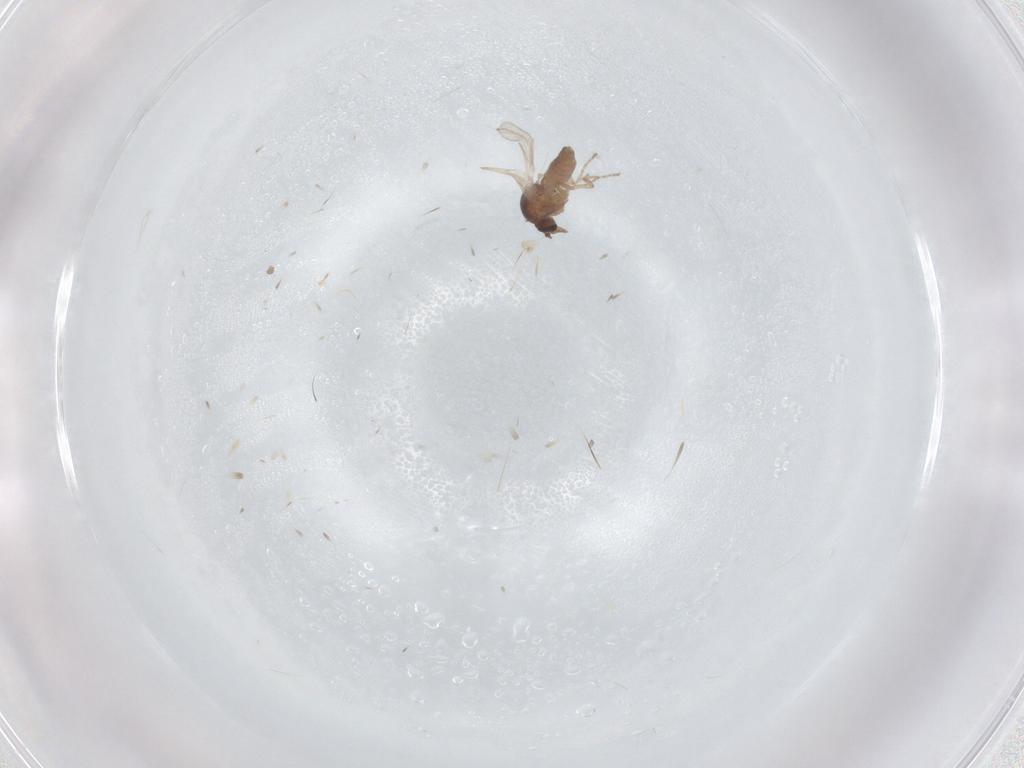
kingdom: Animalia
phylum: Arthropoda
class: Insecta
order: Diptera
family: Ceratopogonidae
